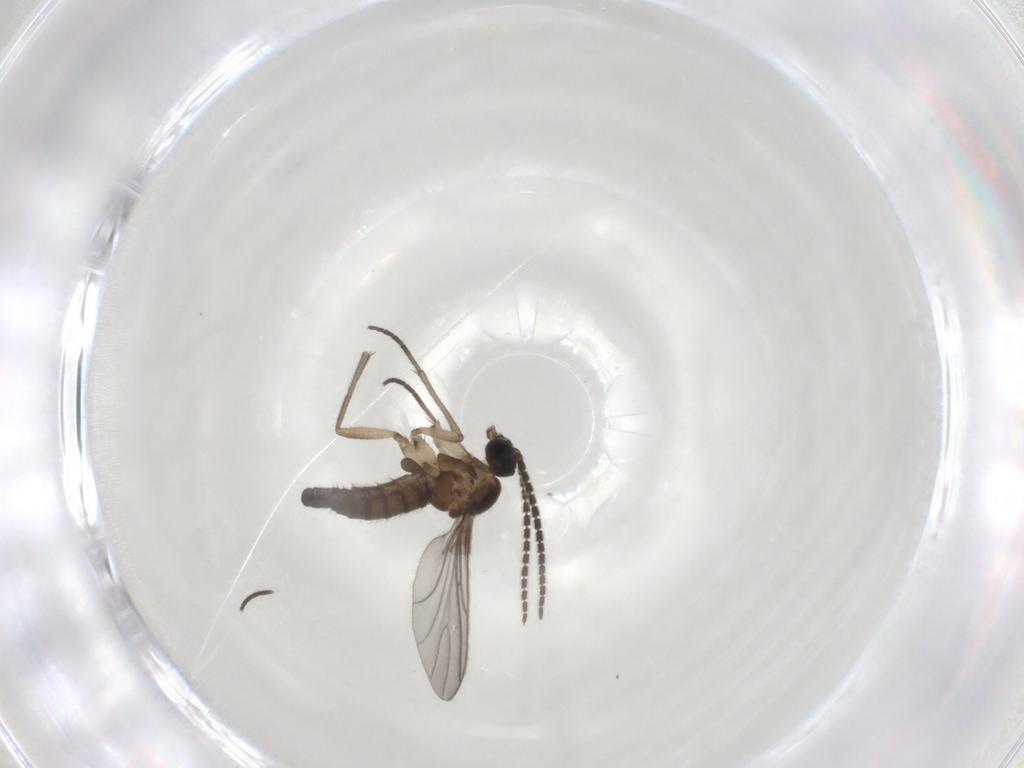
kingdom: Animalia
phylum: Arthropoda
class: Insecta
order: Diptera
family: Sciaridae
